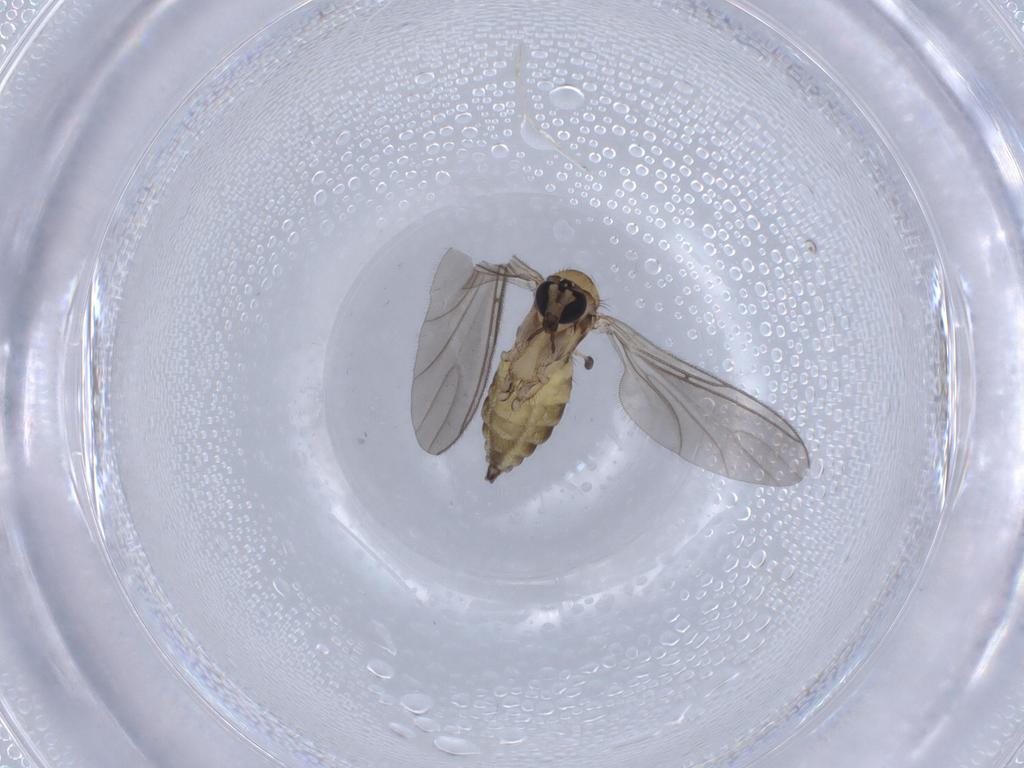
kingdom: Animalia
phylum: Arthropoda
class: Insecta
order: Diptera
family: Sciaridae
